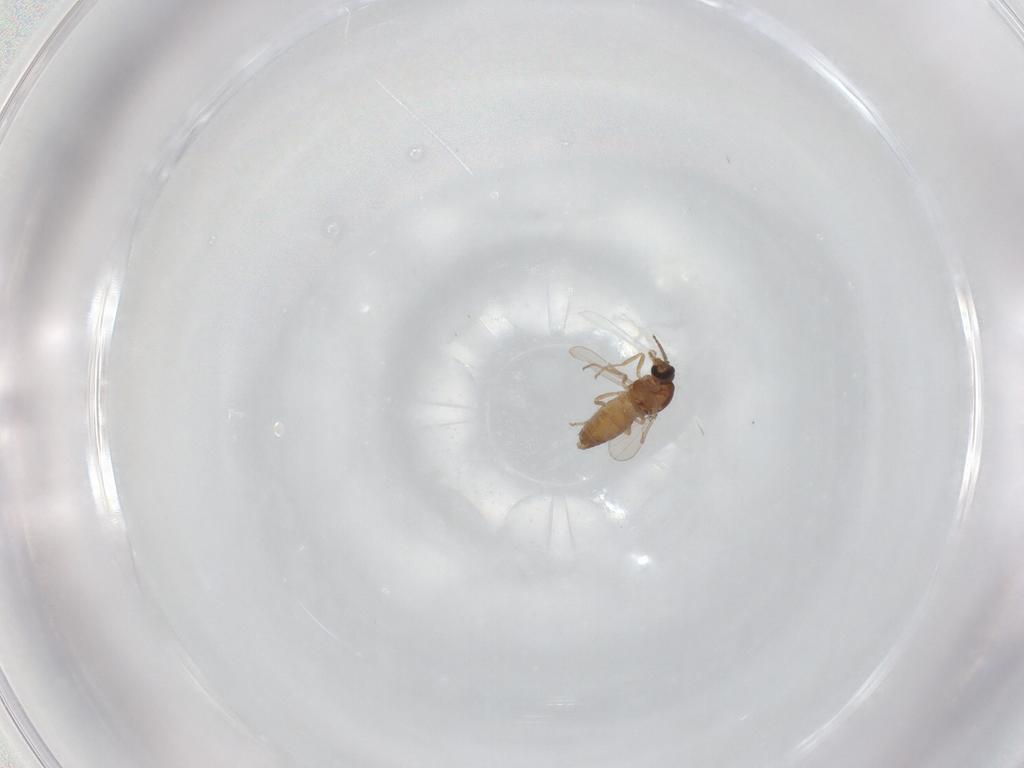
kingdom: Animalia
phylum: Arthropoda
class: Insecta
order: Diptera
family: Ceratopogonidae
